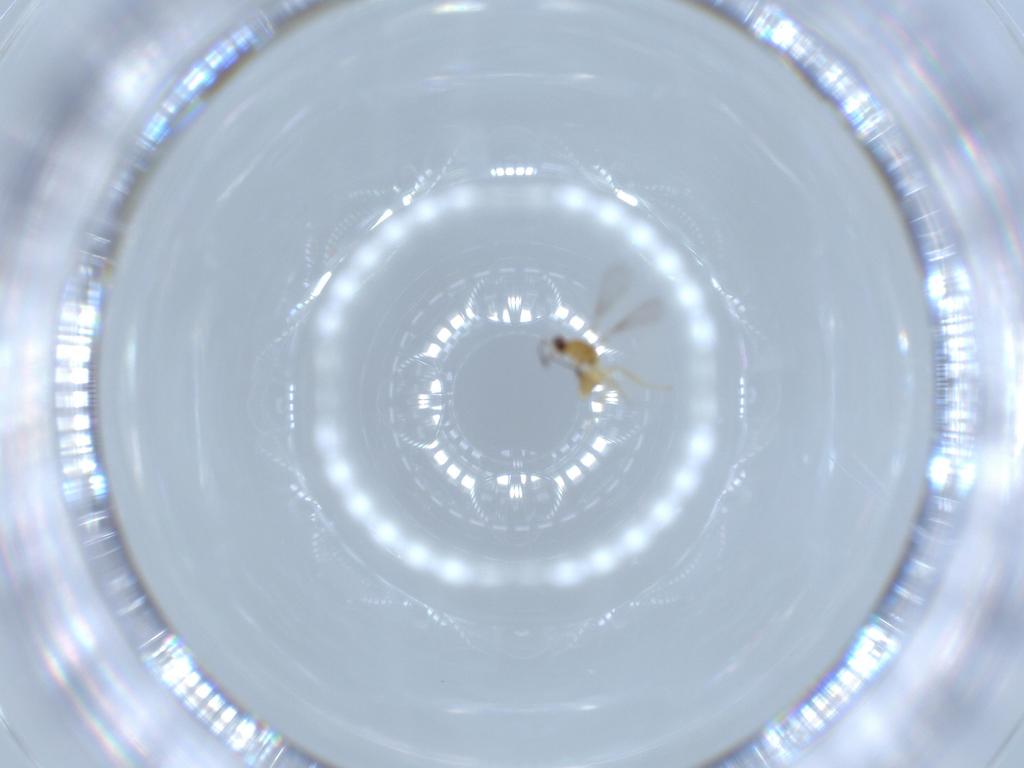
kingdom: Animalia
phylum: Arthropoda
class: Insecta
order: Hymenoptera
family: Mymaridae
